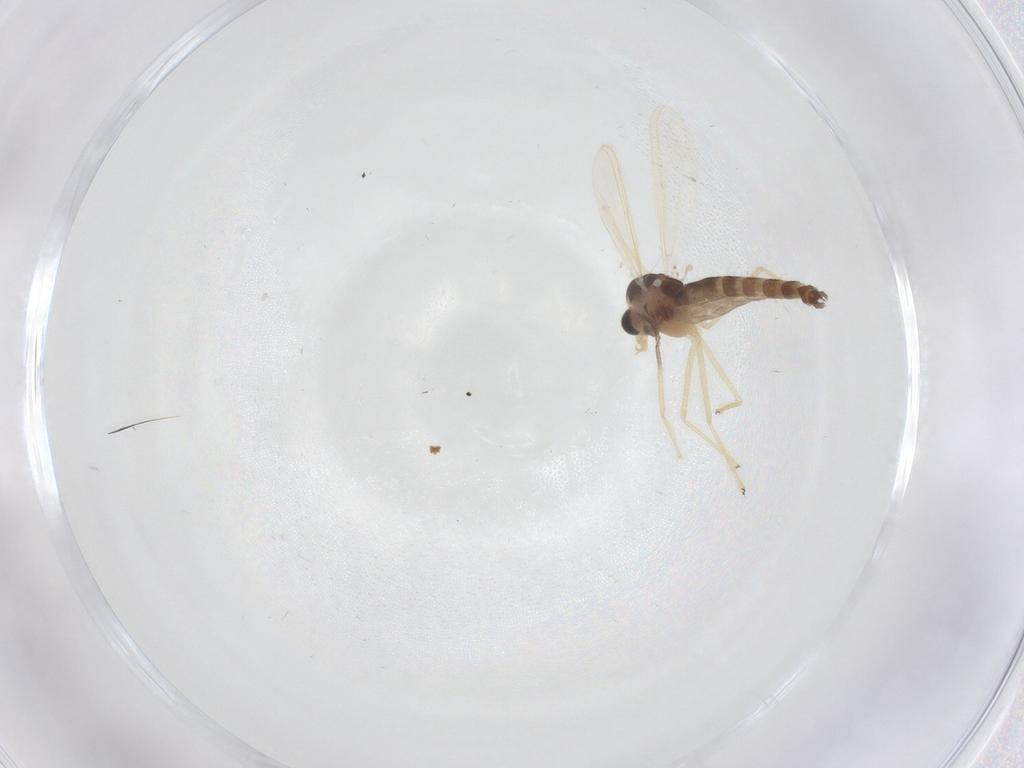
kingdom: Animalia
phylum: Arthropoda
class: Insecta
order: Diptera
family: Chironomidae
